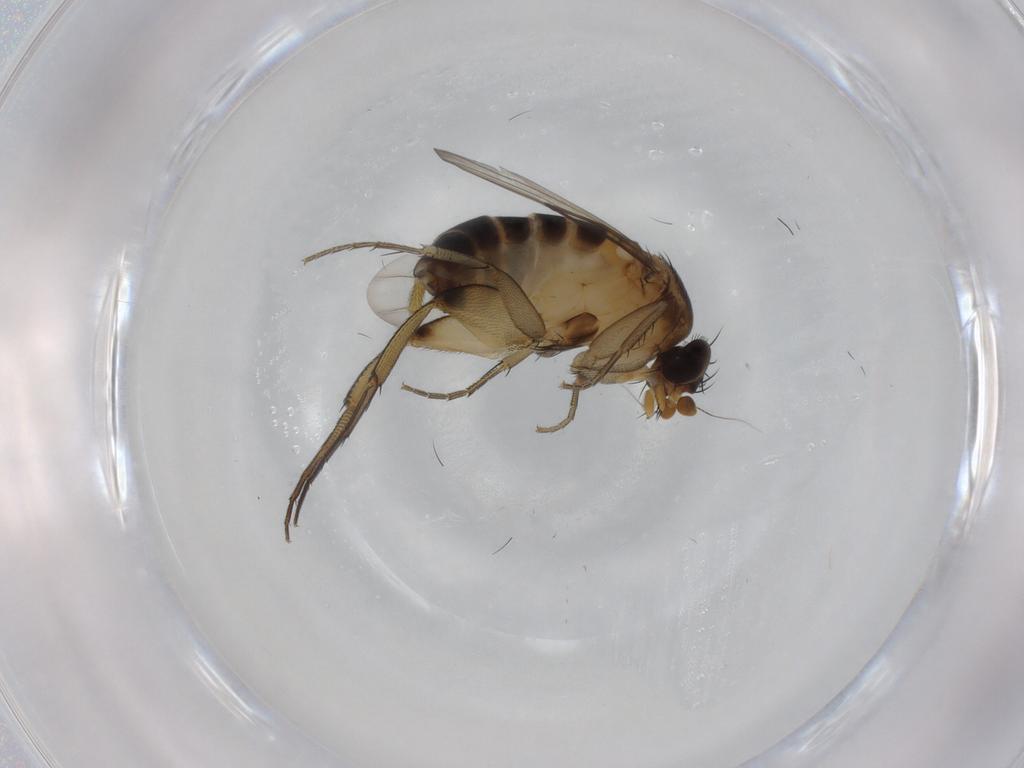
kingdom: Animalia
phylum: Arthropoda
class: Insecta
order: Diptera
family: Phoridae
